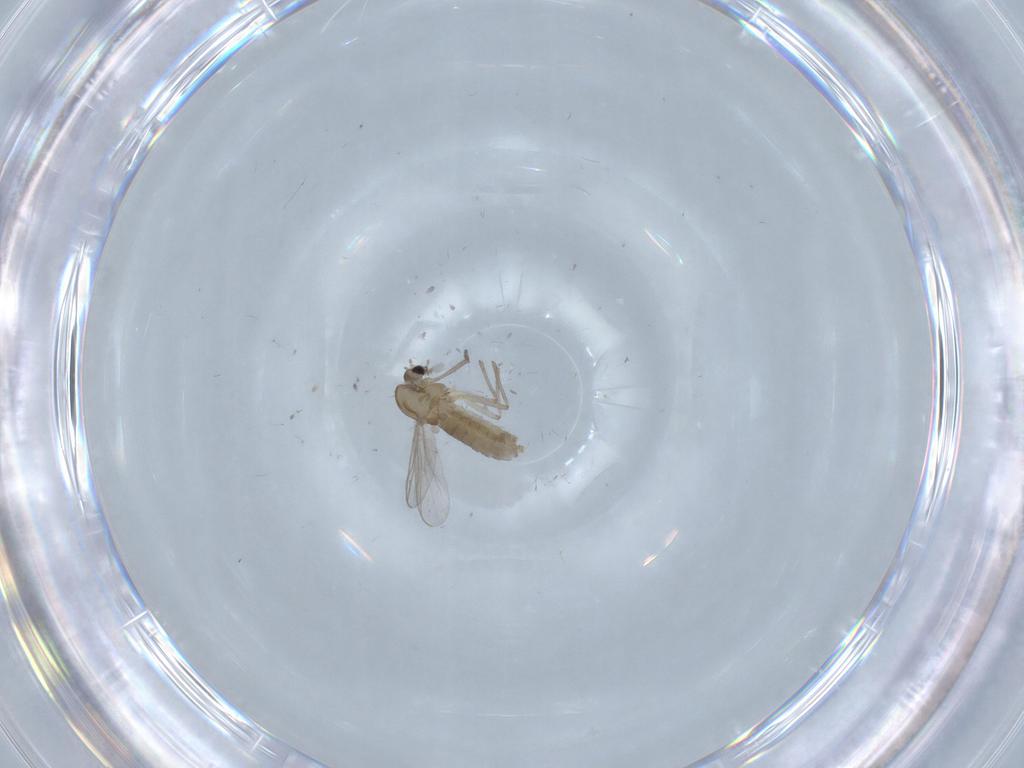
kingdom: Animalia
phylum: Arthropoda
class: Insecta
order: Diptera
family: Chironomidae
